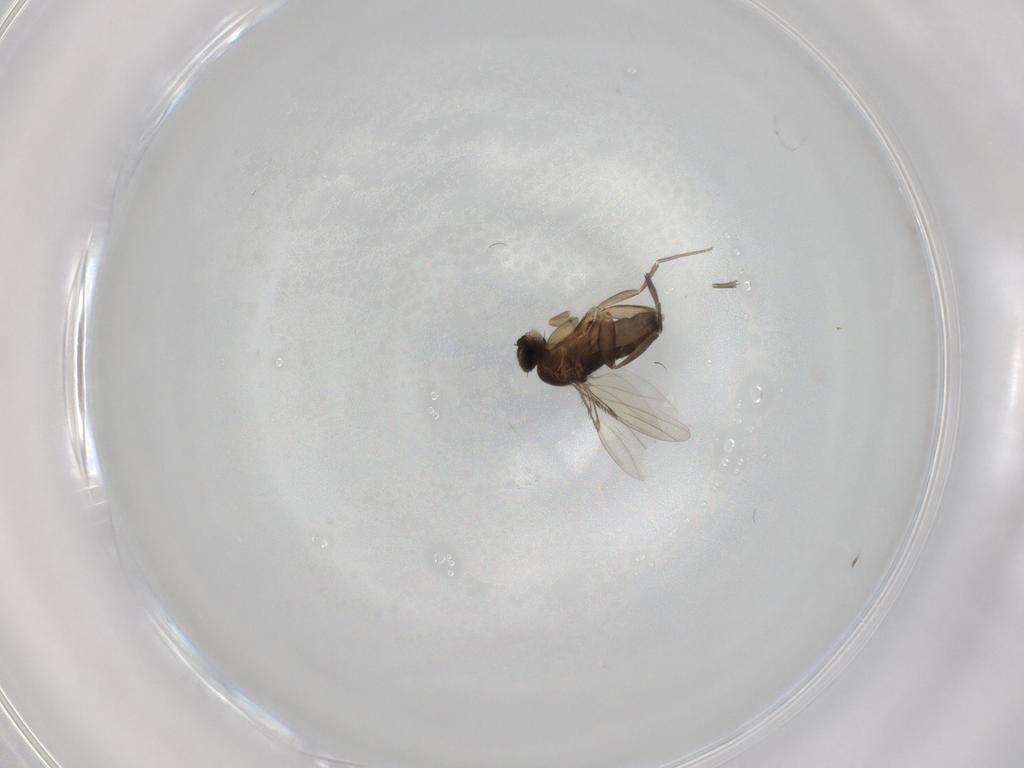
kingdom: Animalia
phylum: Arthropoda
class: Insecta
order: Diptera
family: Phoridae
